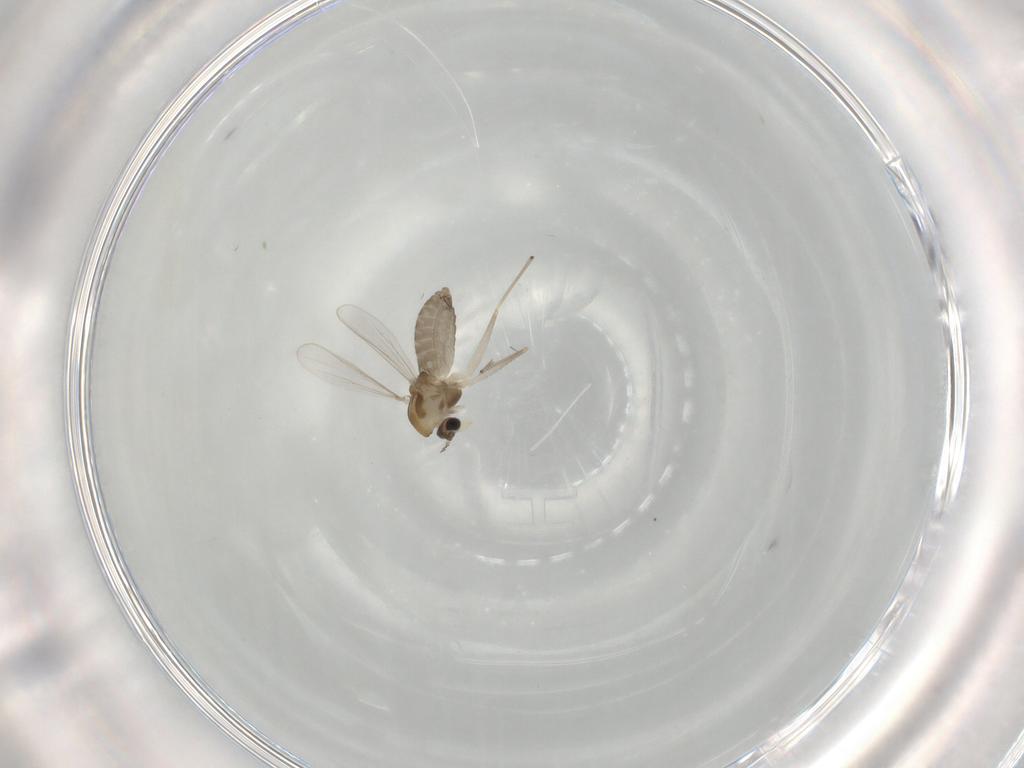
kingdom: Animalia
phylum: Arthropoda
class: Insecta
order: Diptera
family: Chironomidae
